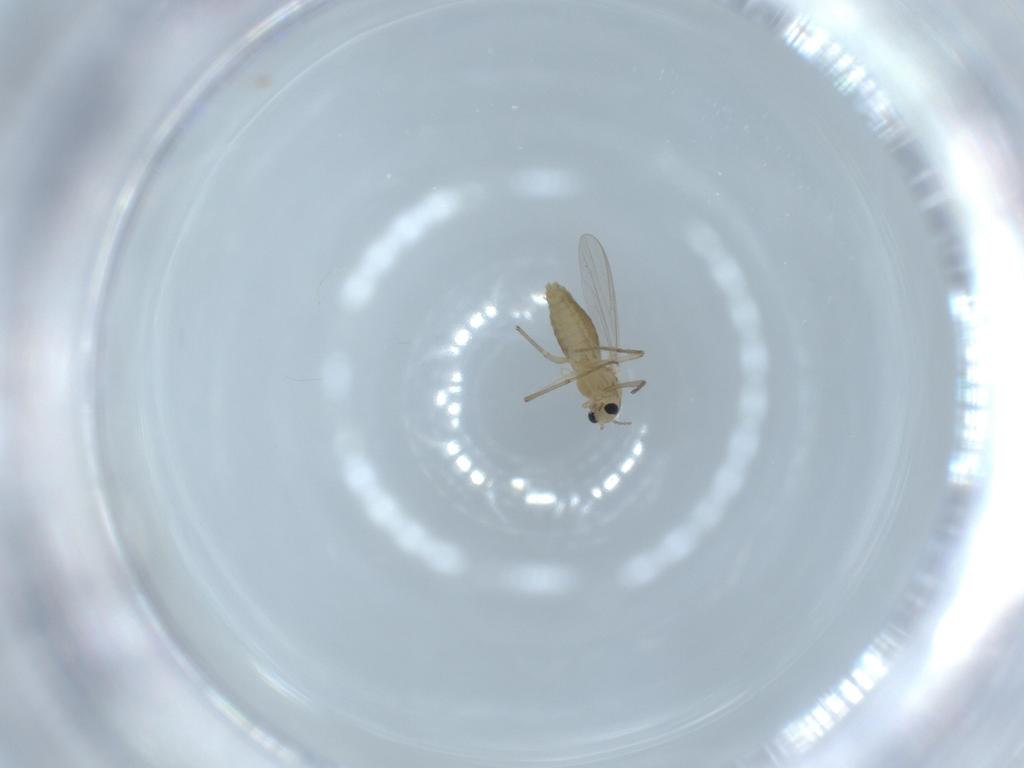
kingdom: Animalia
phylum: Arthropoda
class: Insecta
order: Diptera
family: Chironomidae
